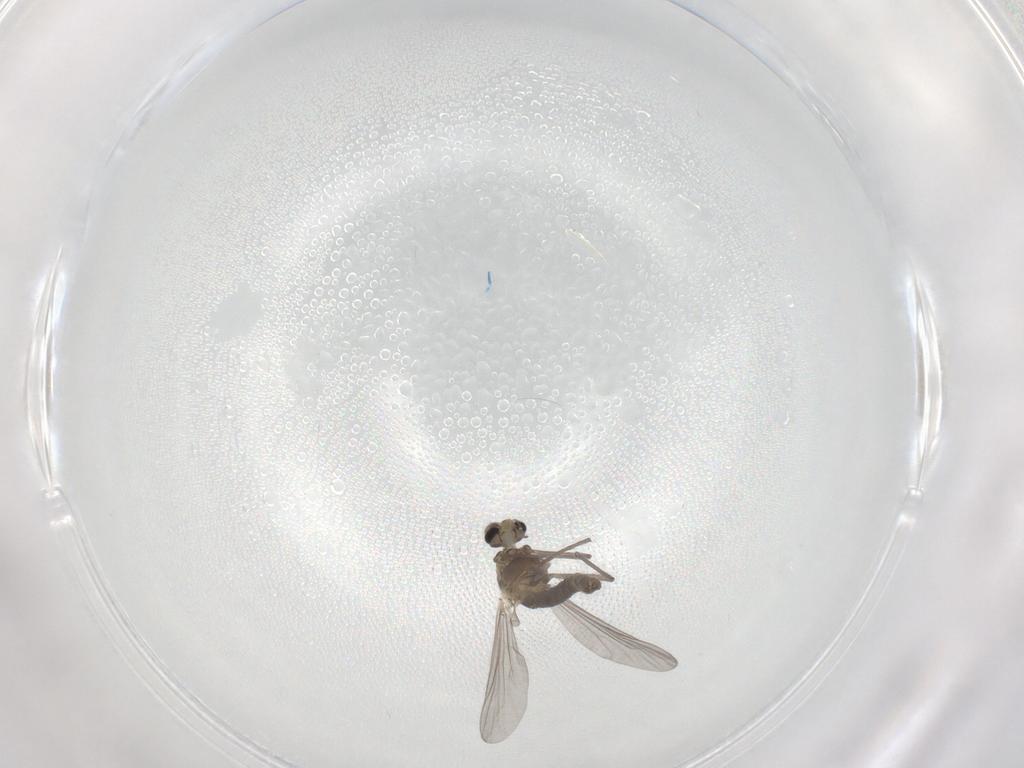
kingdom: Animalia
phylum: Arthropoda
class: Insecta
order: Diptera
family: Chironomidae
